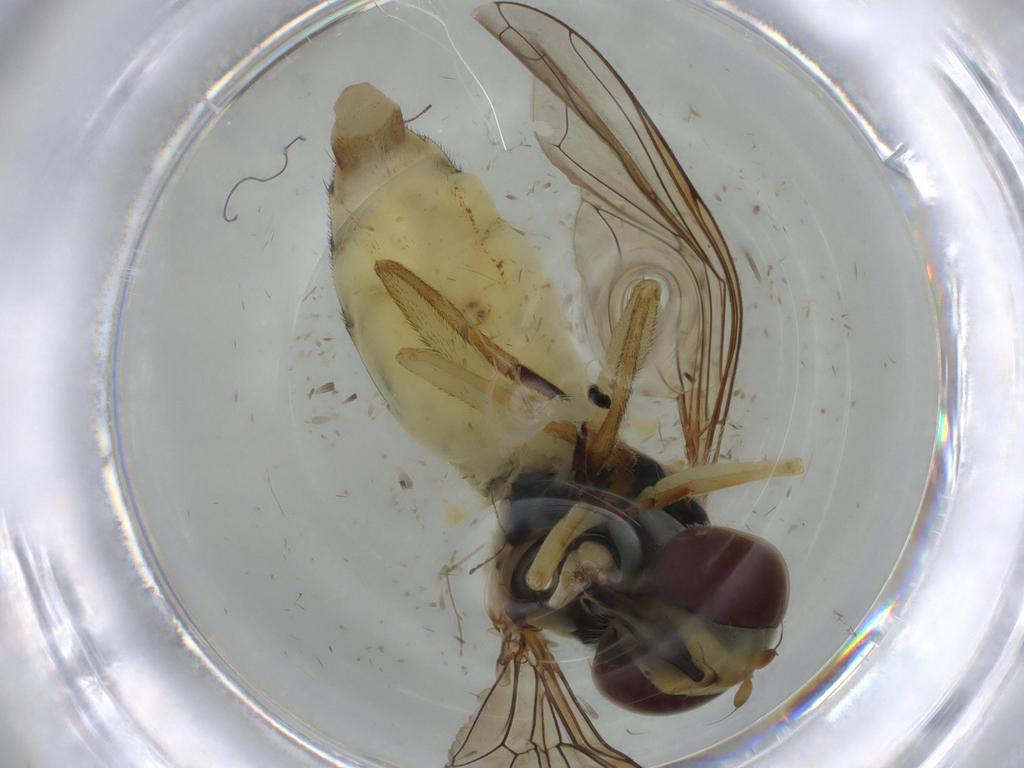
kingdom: Animalia
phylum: Arthropoda
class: Insecta
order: Diptera
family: Syrphidae
